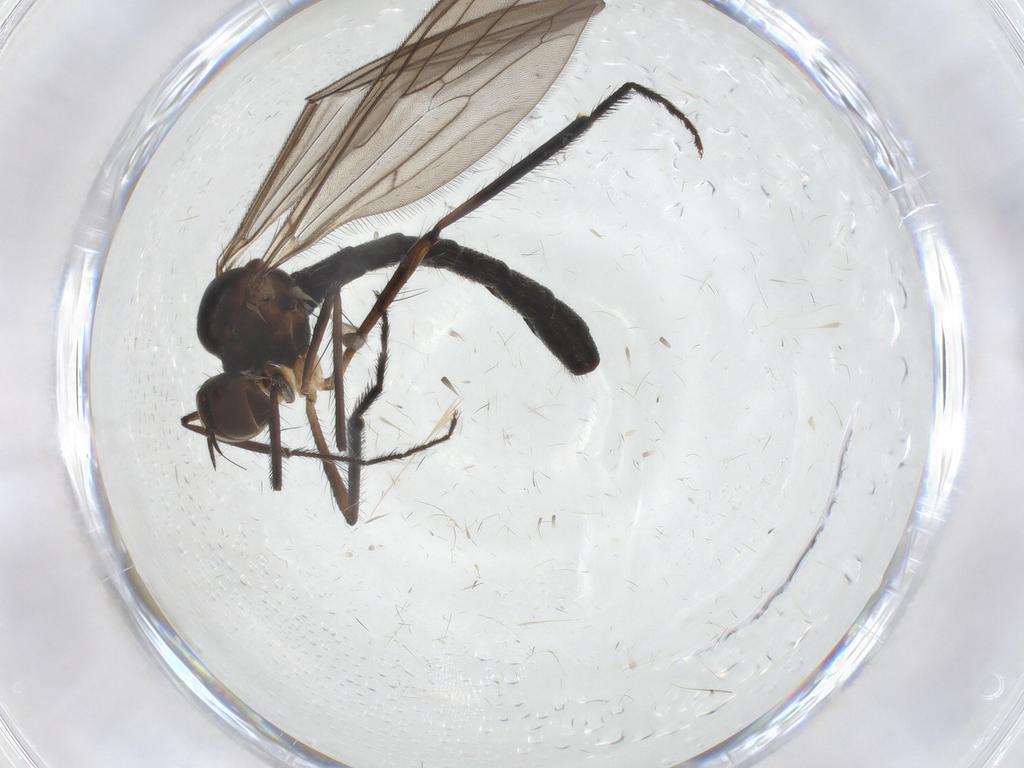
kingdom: Animalia
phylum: Arthropoda
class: Insecta
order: Diptera
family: Hybotidae
